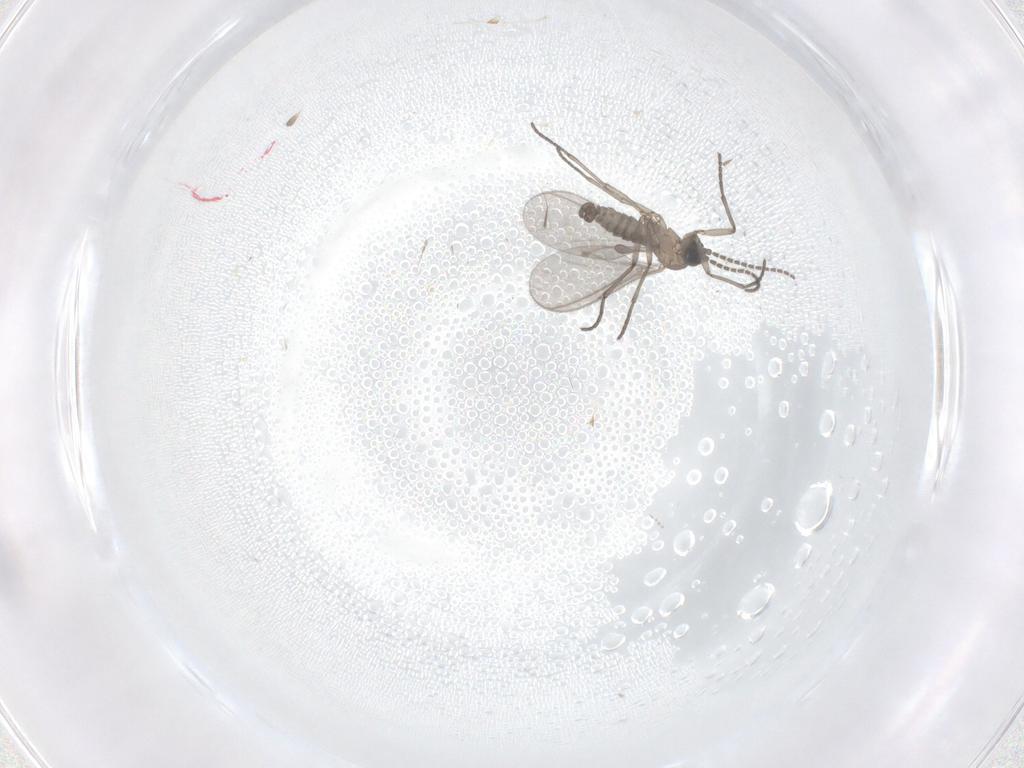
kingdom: Animalia
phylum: Arthropoda
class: Insecta
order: Diptera
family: Sciaridae
